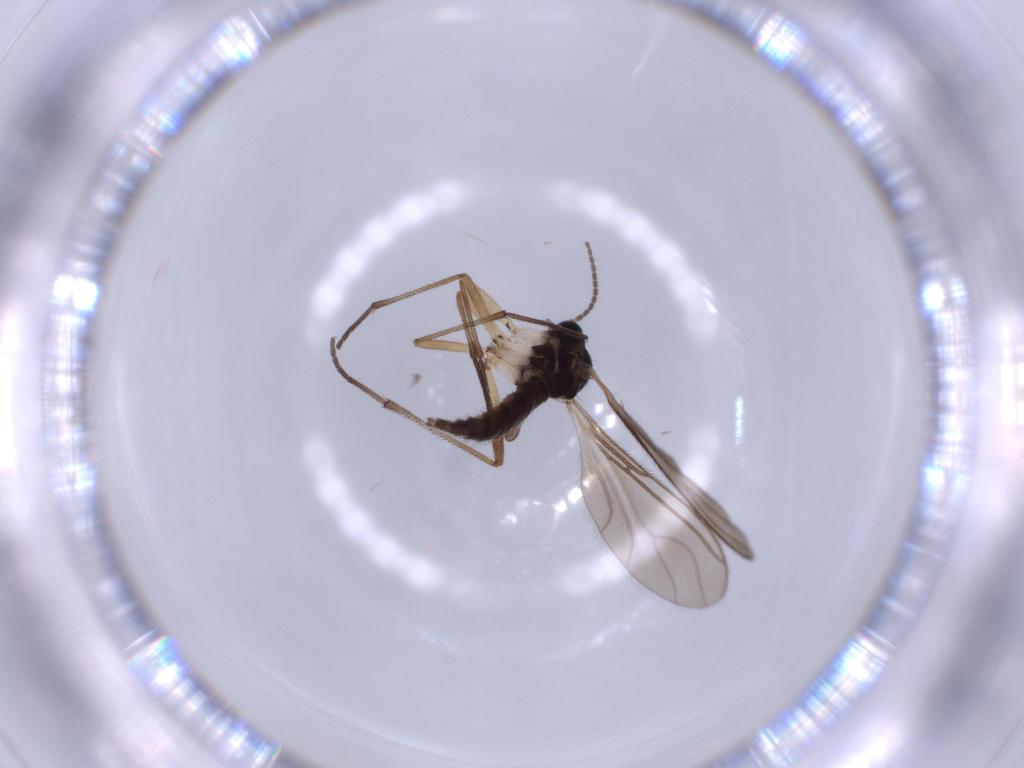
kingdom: Animalia
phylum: Arthropoda
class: Insecta
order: Diptera
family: Sciaridae
